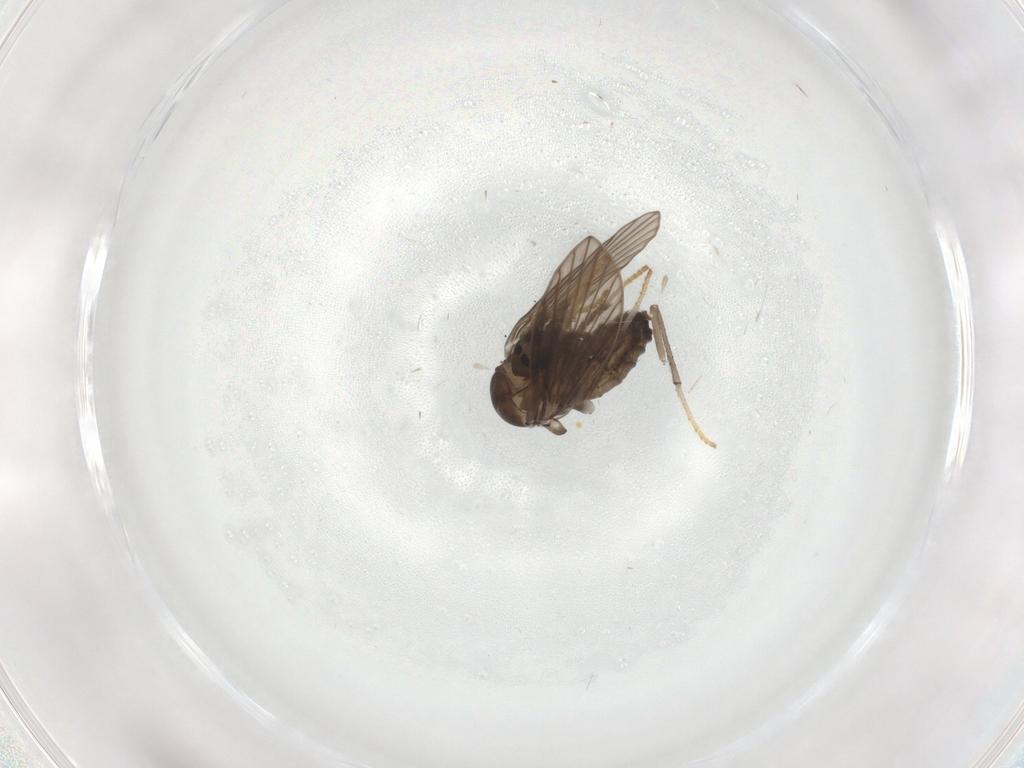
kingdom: Animalia
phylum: Arthropoda
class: Insecta
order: Diptera
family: Psychodidae
